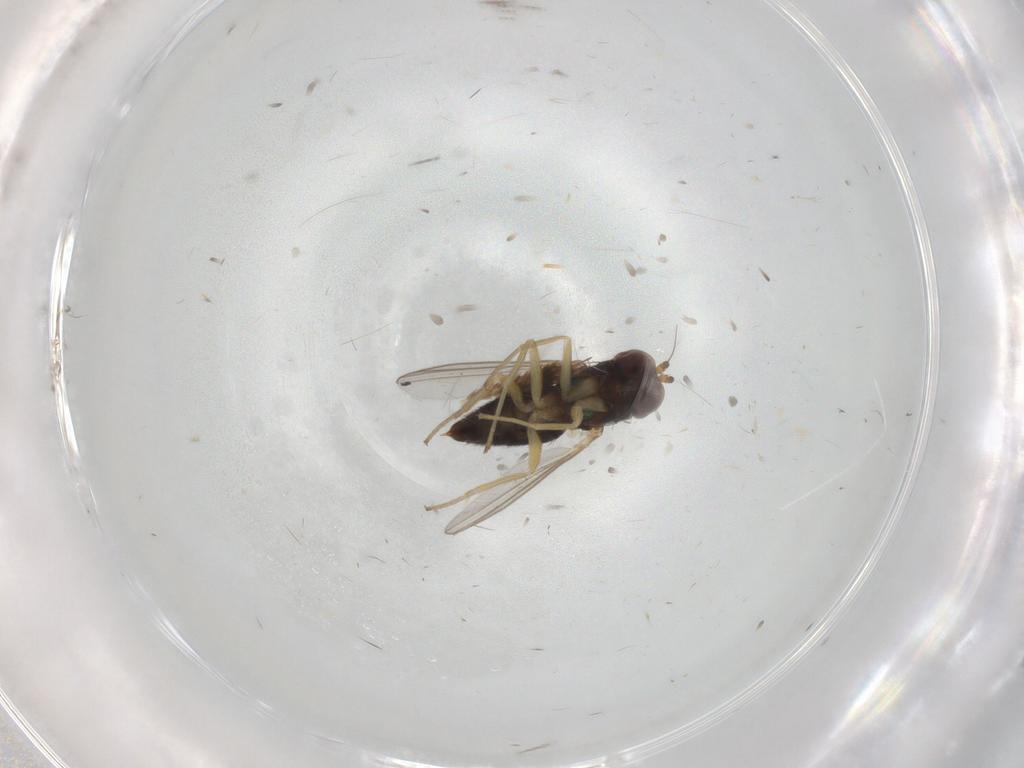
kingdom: Animalia
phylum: Arthropoda
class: Insecta
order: Diptera
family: Dolichopodidae
